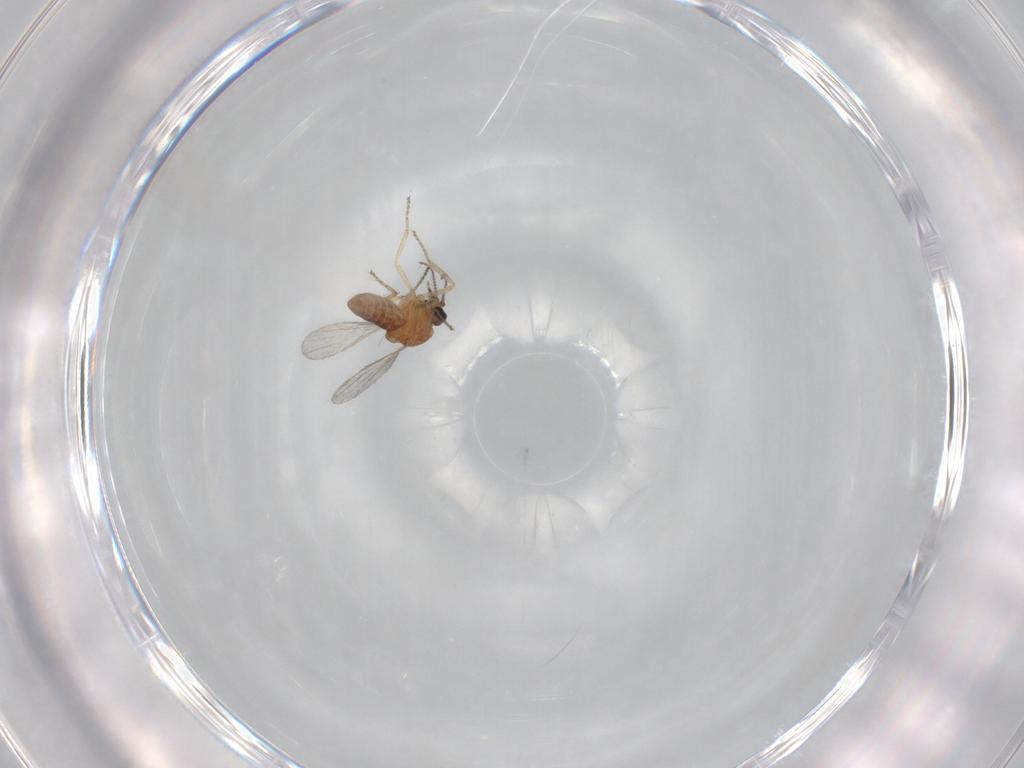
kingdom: Animalia
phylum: Arthropoda
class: Insecta
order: Diptera
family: Ceratopogonidae
